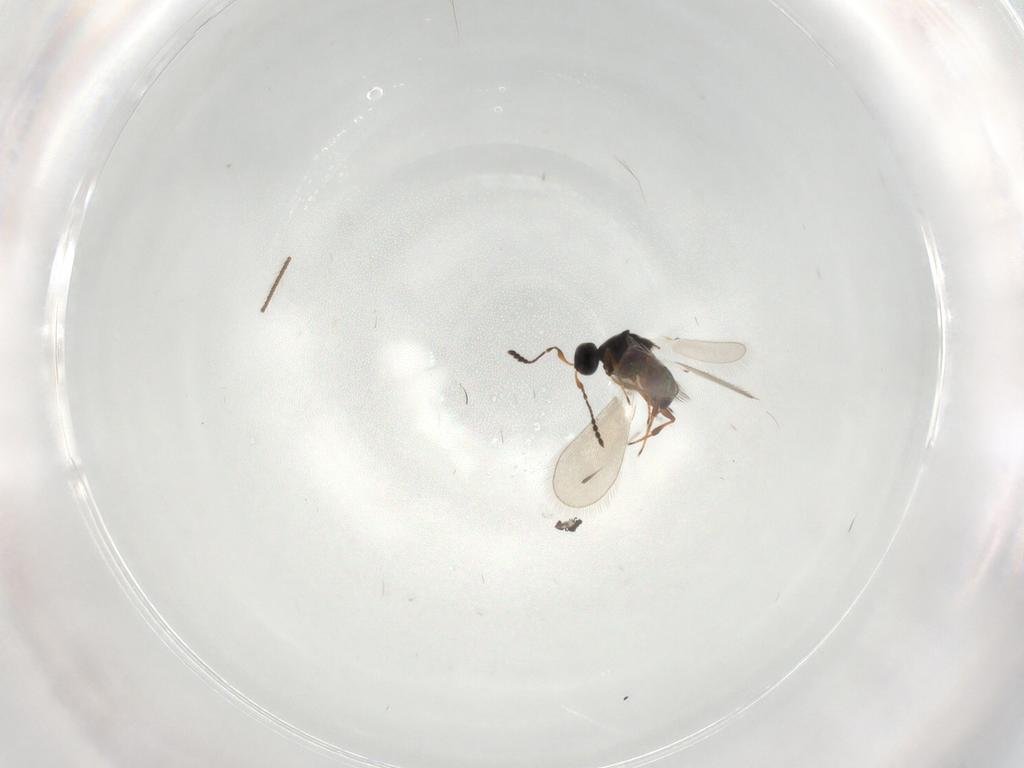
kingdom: Animalia
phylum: Arthropoda
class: Insecta
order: Hymenoptera
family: Platygastridae
